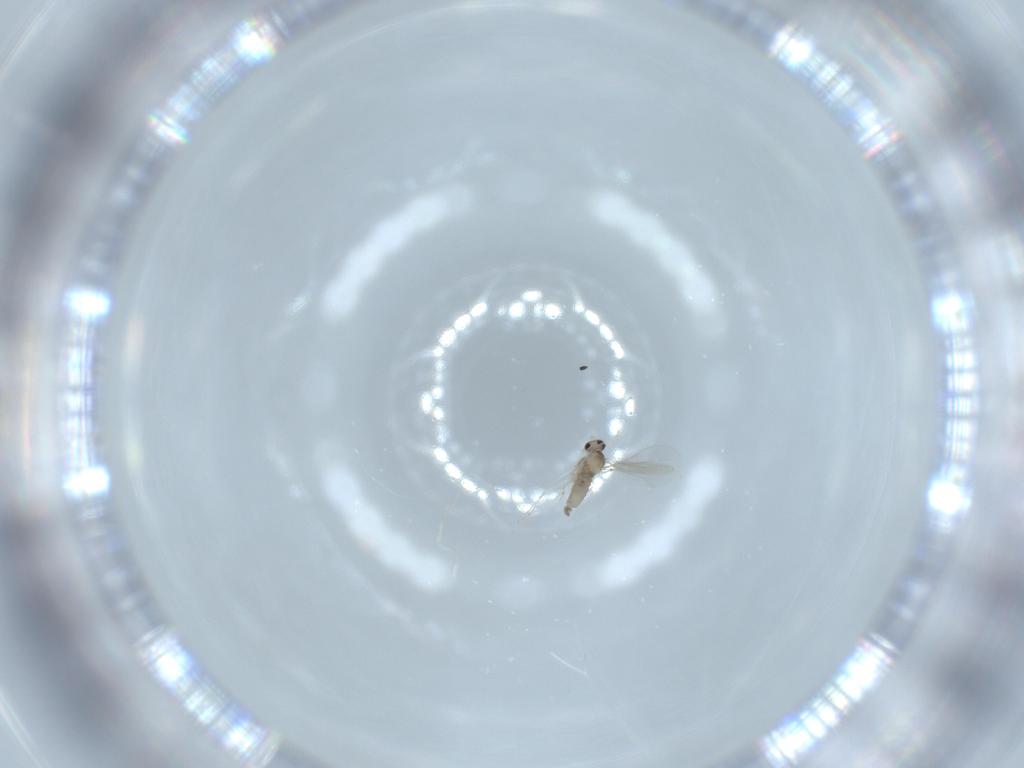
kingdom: Animalia
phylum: Arthropoda
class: Insecta
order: Diptera
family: Cecidomyiidae
